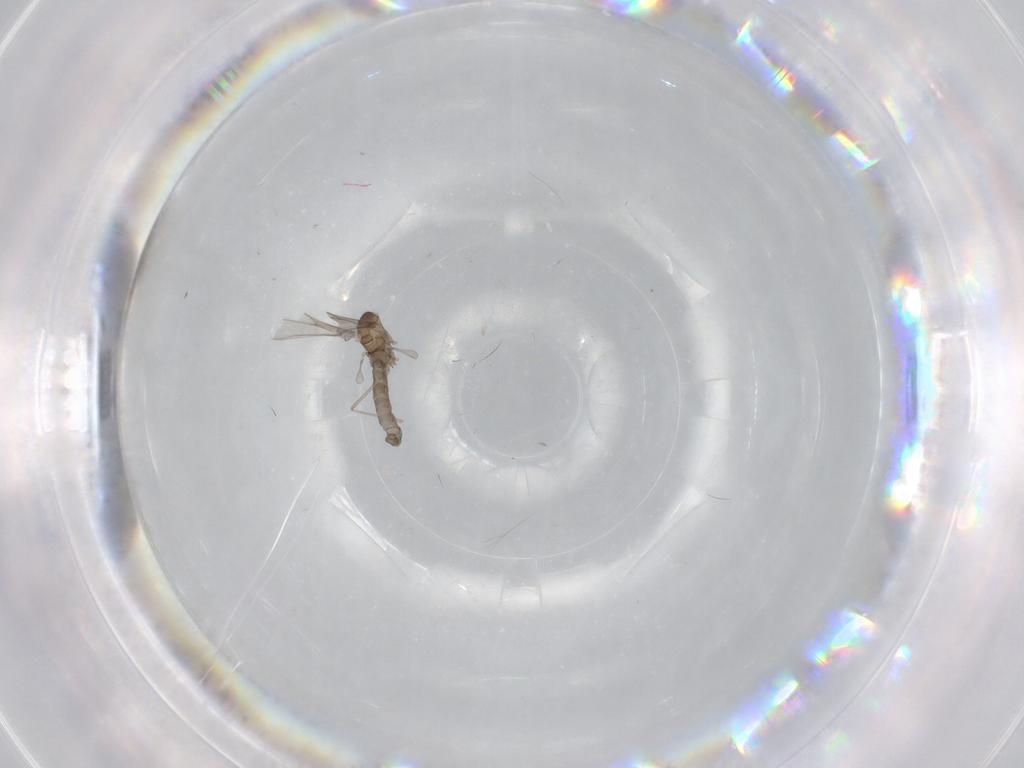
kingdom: Animalia
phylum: Arthropoda
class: Insecta
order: Diptera
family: Cecidomyiidae
